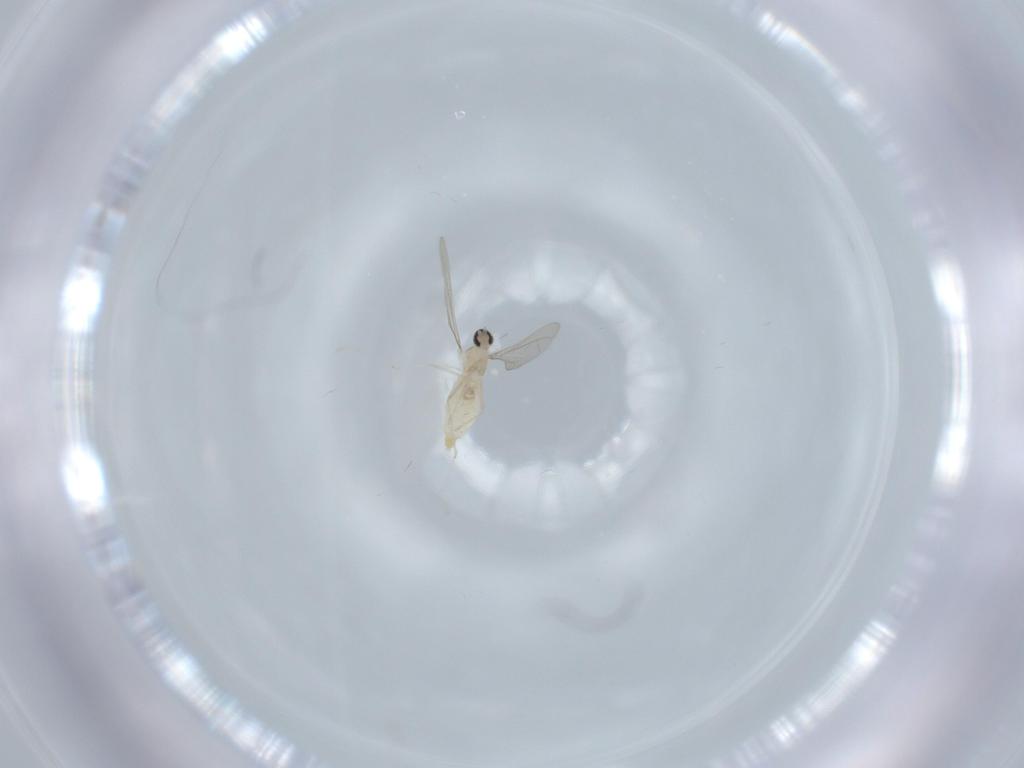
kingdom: Animalia
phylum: Arthropoda
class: Insecta
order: Diptera
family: Cecidomyiidae
